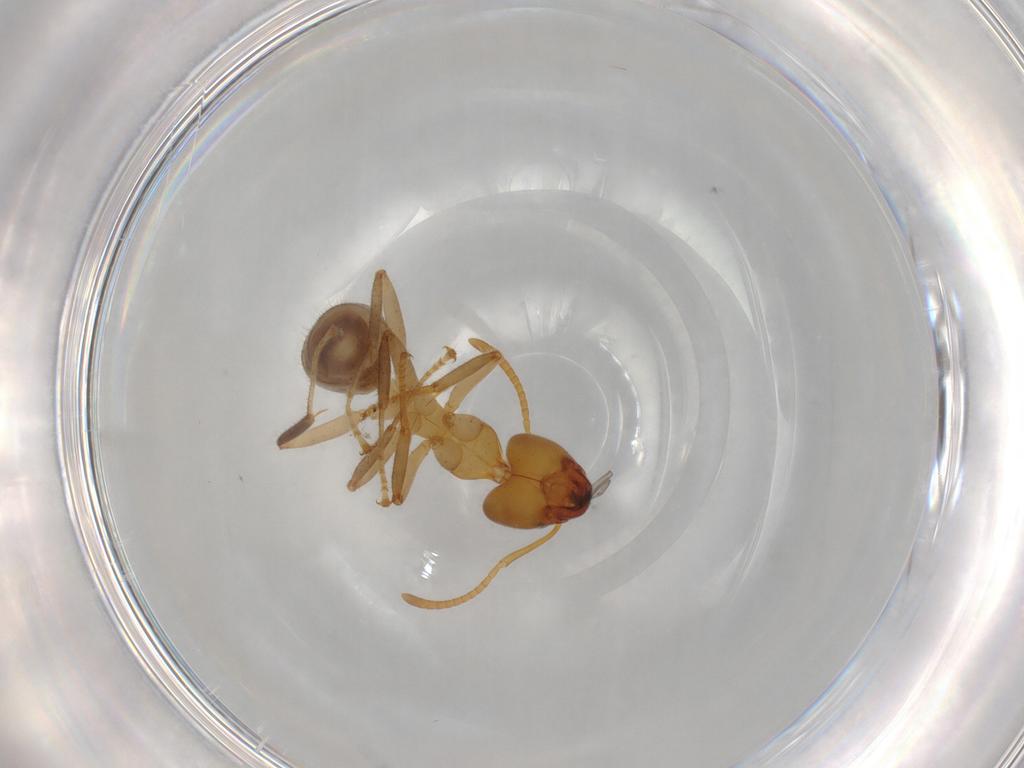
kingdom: Animalia
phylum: Arthropoda
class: Insecta
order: Hymenoptera
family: Formicidae
